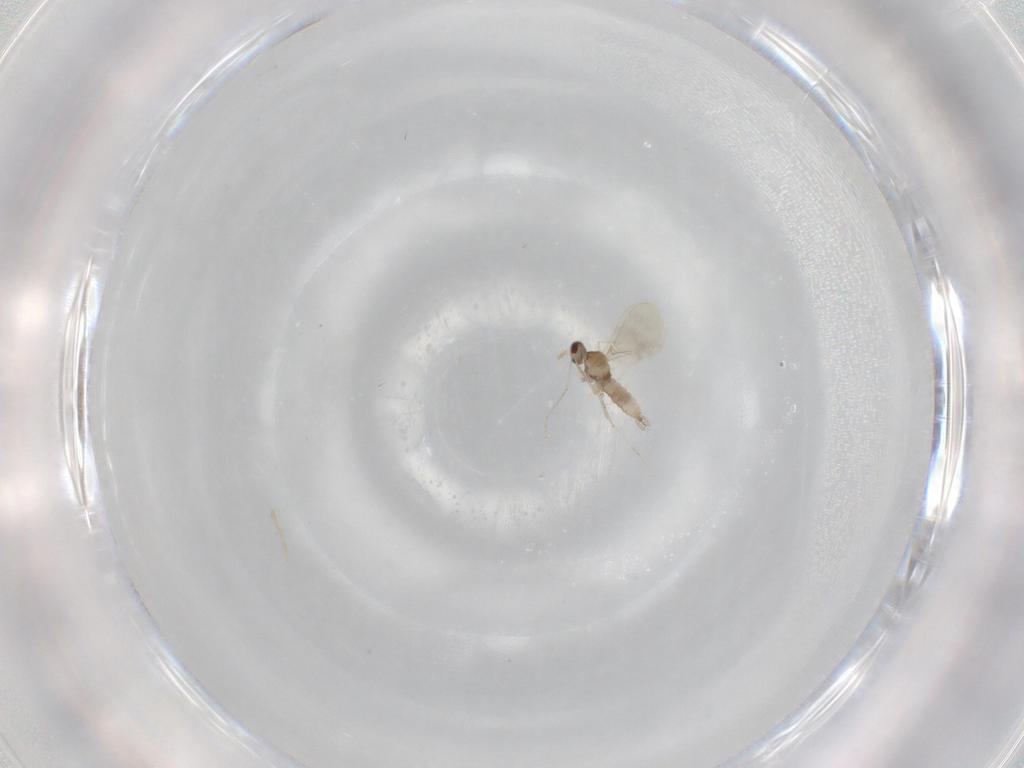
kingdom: Animalia
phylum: Arthropoda
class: Insecta
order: Diptera
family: Cecidomyiidae
